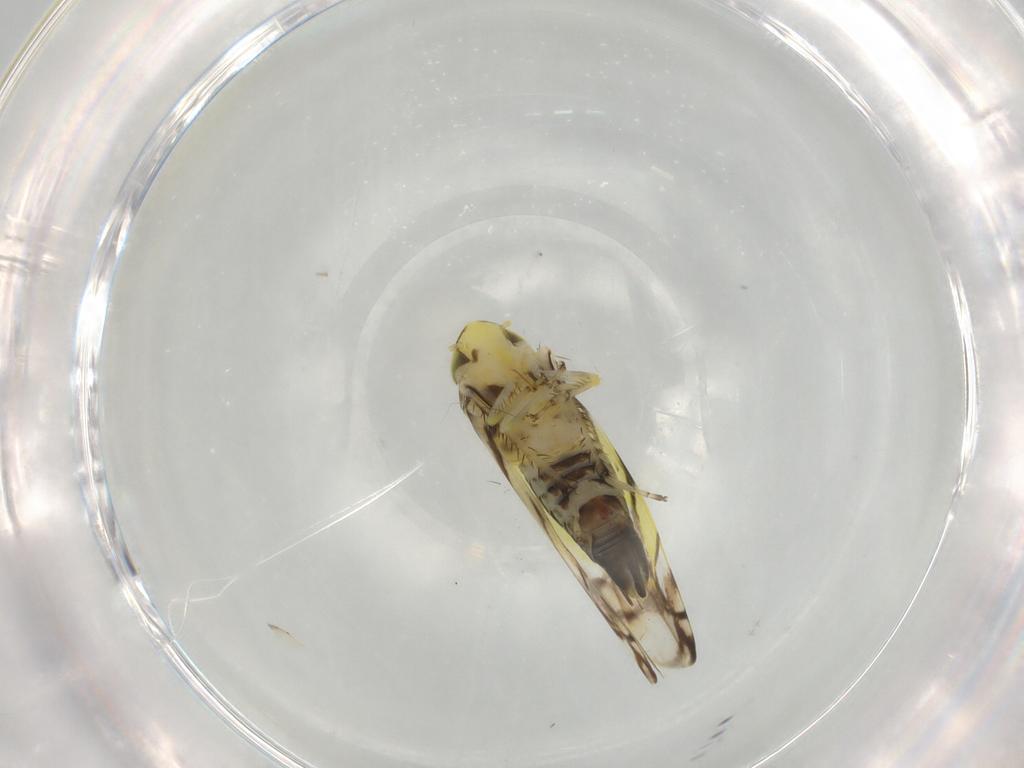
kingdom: Animalia
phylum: Arthropoda
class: Insecta
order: Hemiptera
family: Cicadellidae
